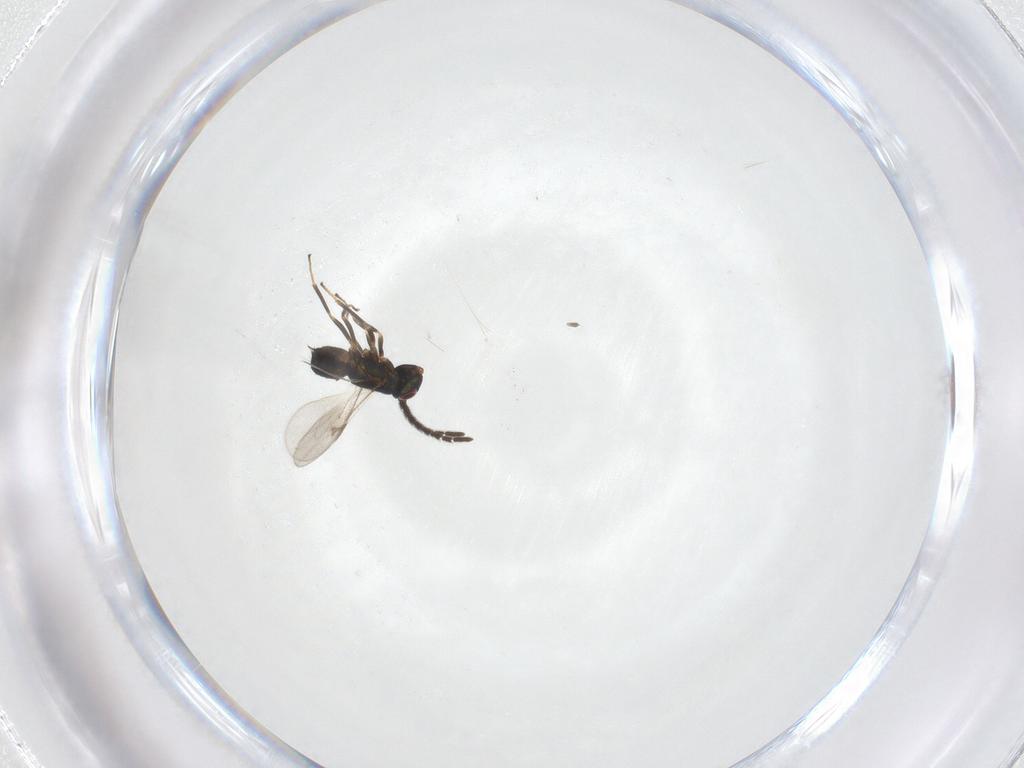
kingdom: Animalia
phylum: Arthropoda
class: Insecta
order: Hymenoptera
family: Encyrtidae
